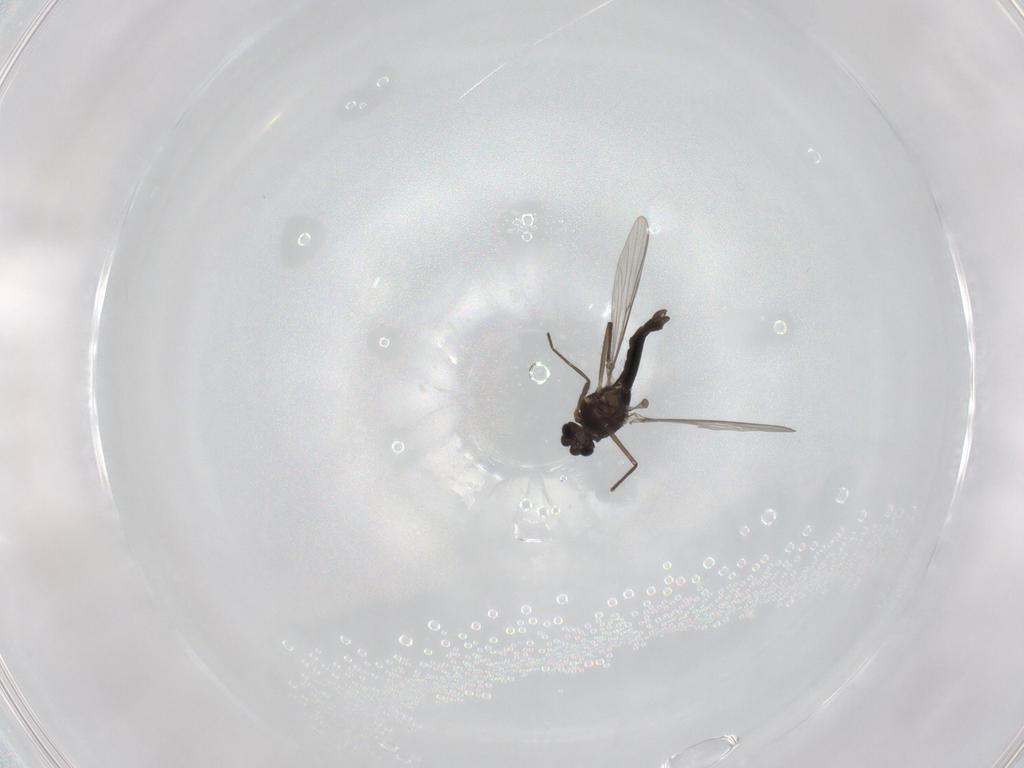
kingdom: Animalia
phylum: Arthropoda
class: Insecta
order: Diptera
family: Chironomidae
